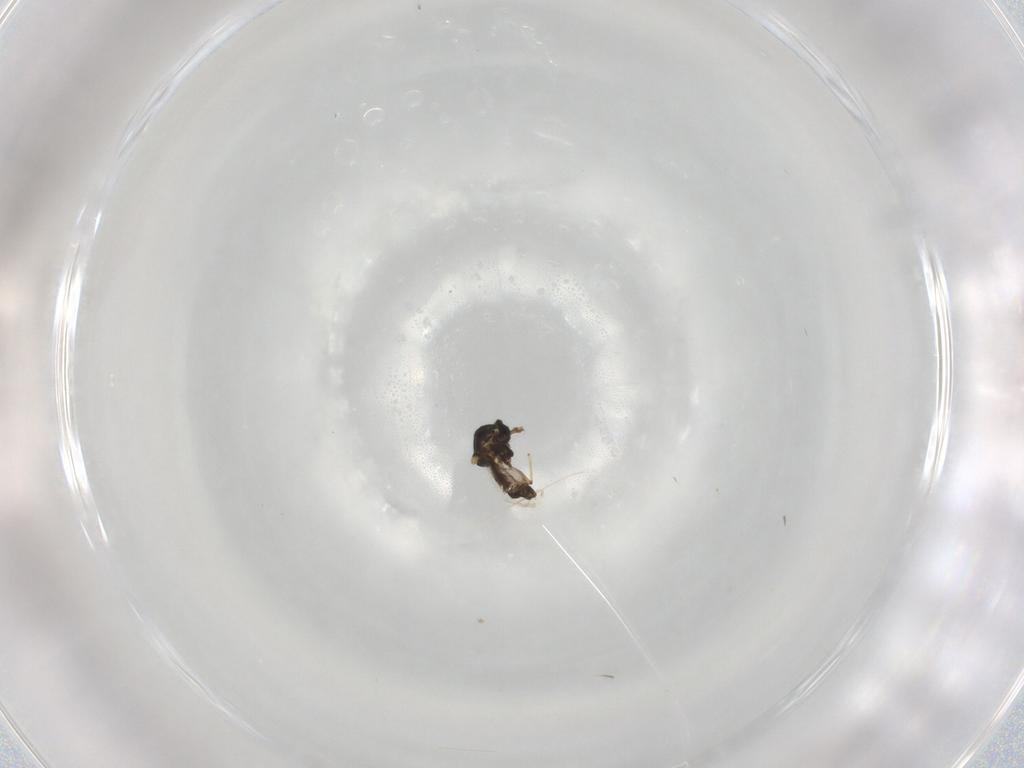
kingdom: Animalia
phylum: Arthropoda
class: Insecta
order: Diptera
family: Ceratopogonidae
